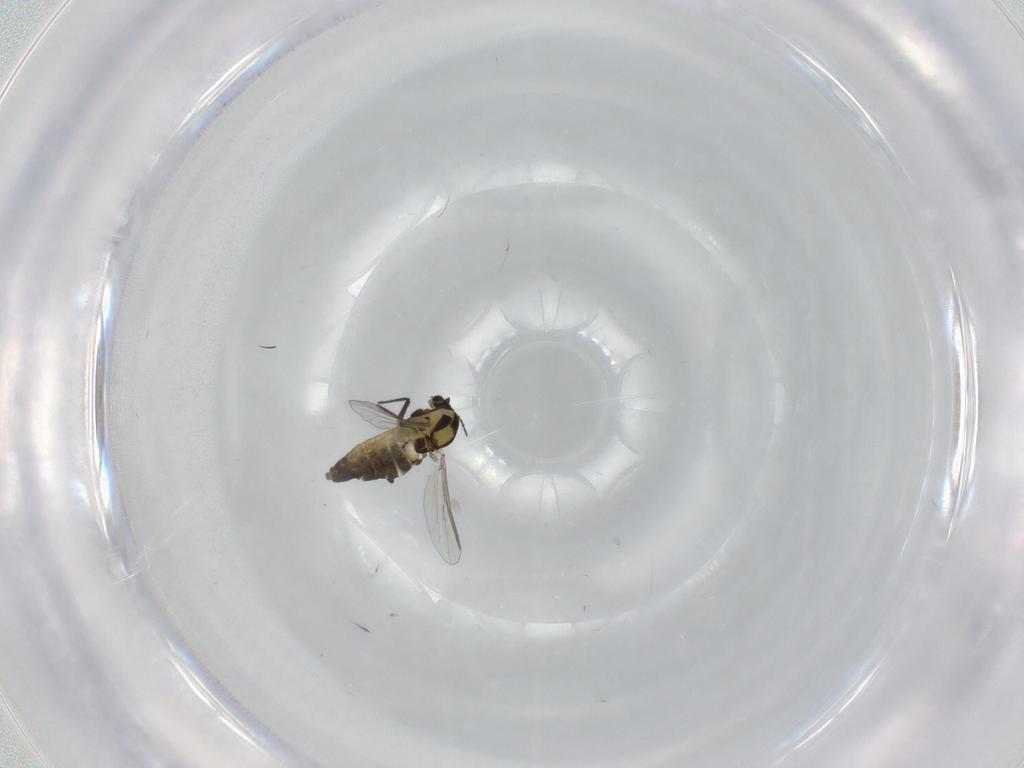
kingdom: Animalia
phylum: Arthropoda
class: Insecta
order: Diptera
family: Chironomidae
